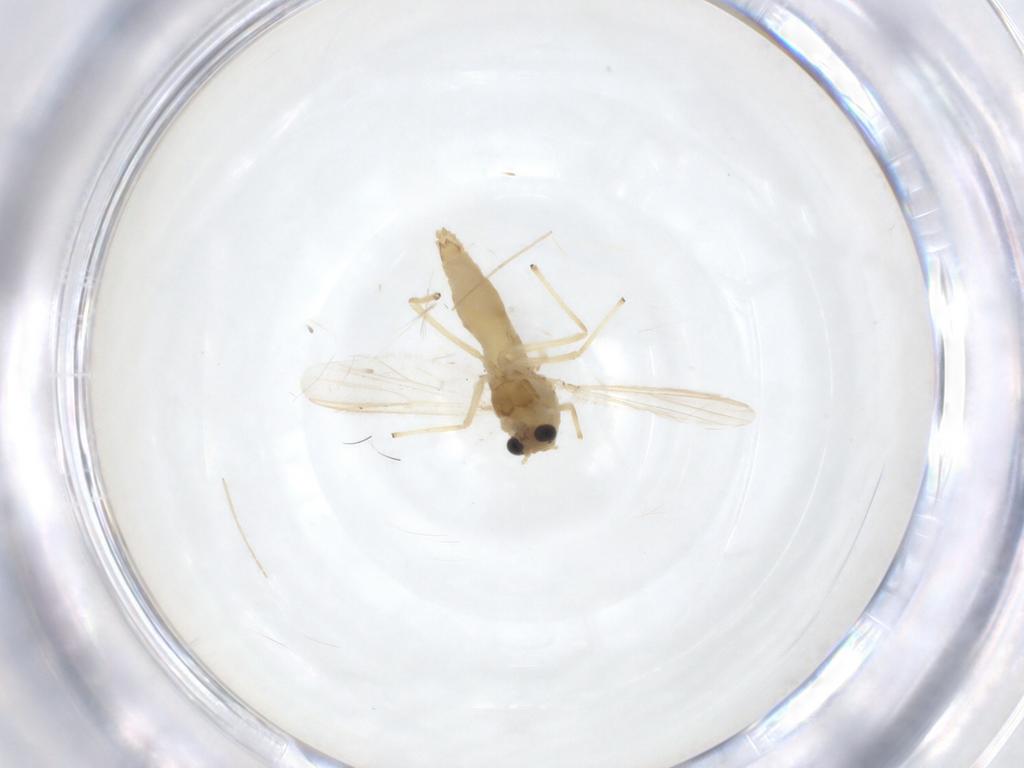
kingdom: Animalia
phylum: Arthropoda
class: Insecta
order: Diptera
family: Chironomidae
